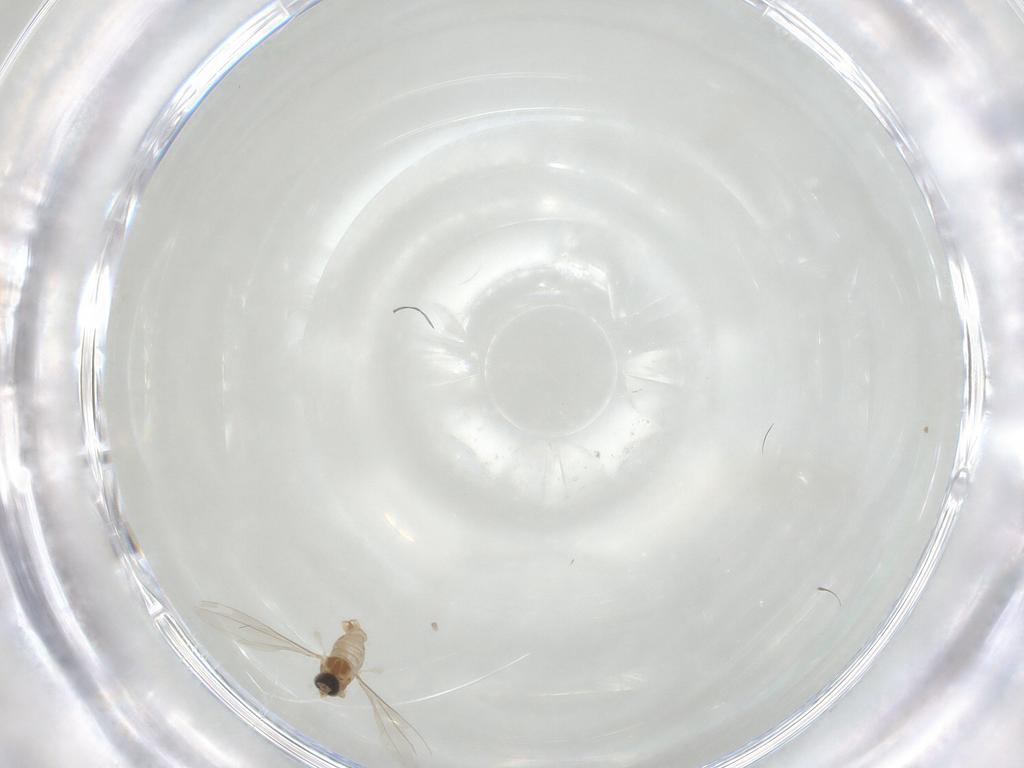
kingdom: Animalia
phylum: Arthropoda
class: Insecta
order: Diptera
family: Cecidomyiidae
